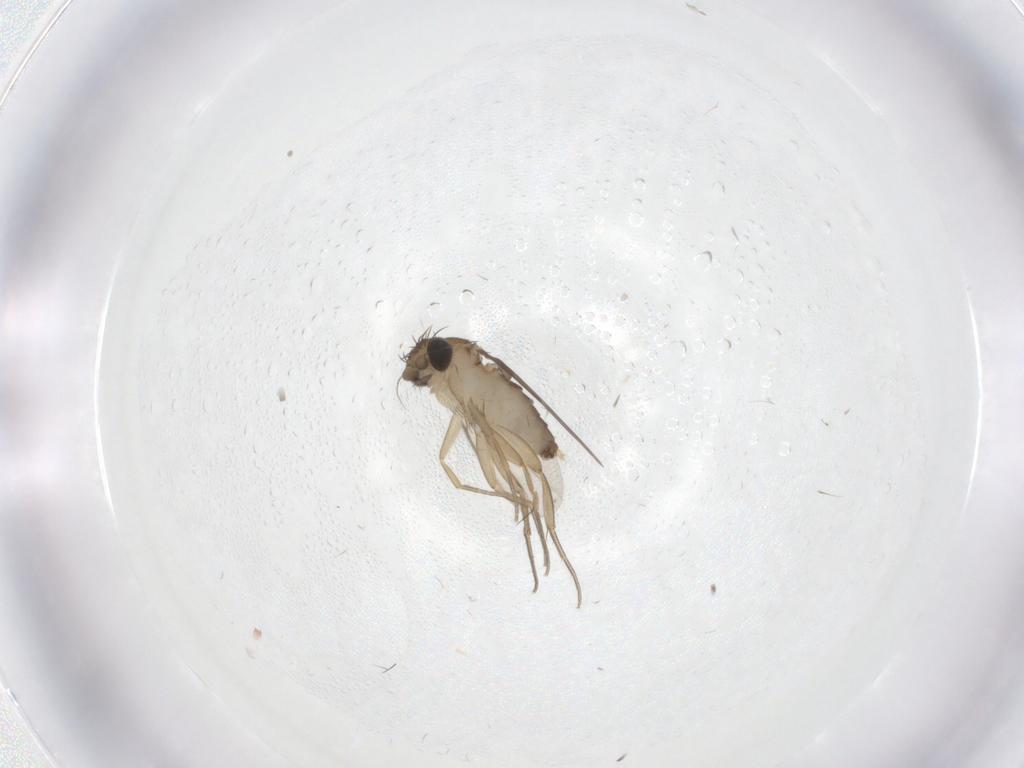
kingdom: Animalia
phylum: Arthropoda
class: Insecta
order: Diptera
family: Phoridae
